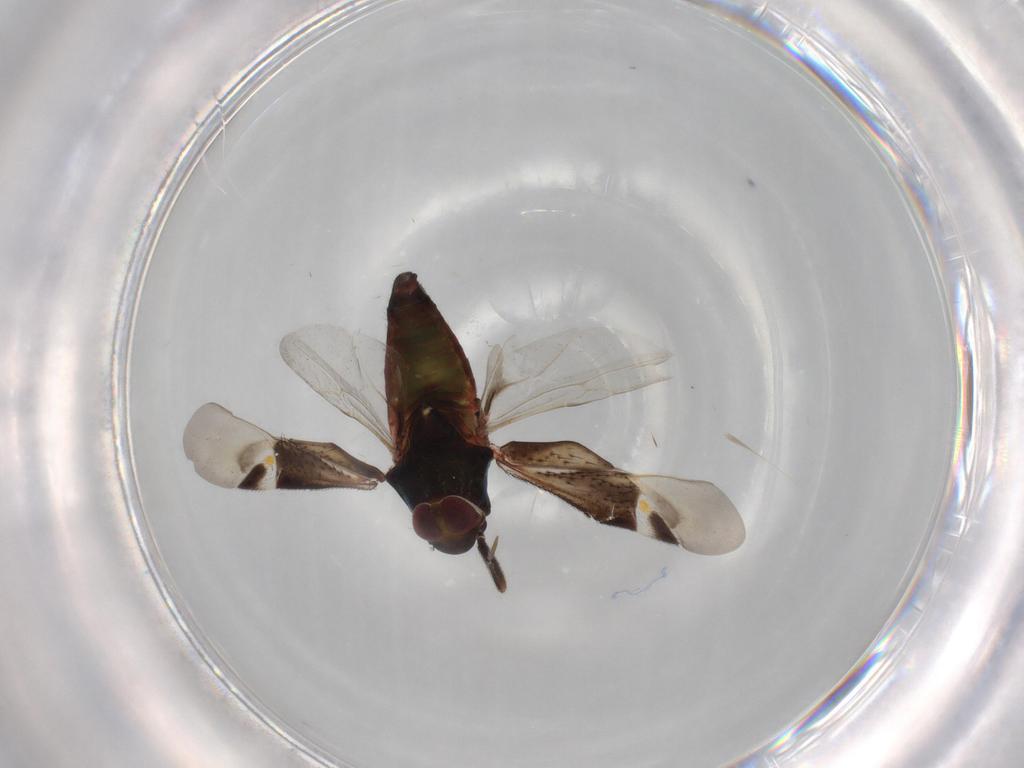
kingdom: Animalia
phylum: Arthropoda
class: Insecta
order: Hemiptera
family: Miridae
